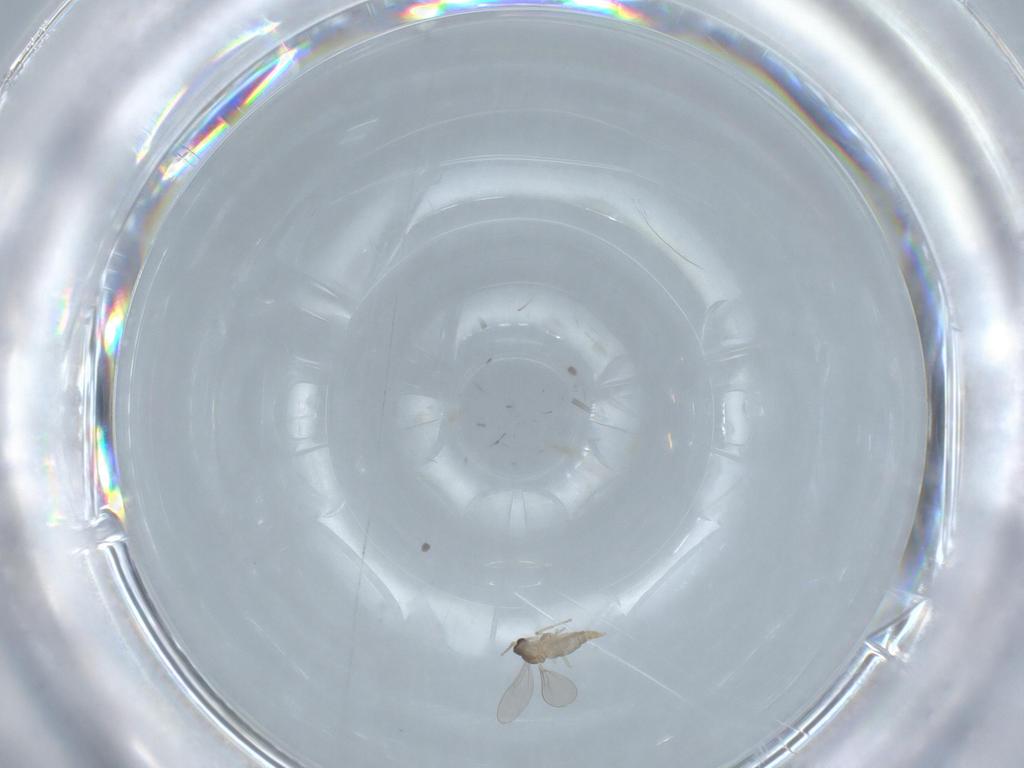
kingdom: Animalia
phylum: Arthropoda
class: Insecta
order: Diptera
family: Cecidomyiidae
